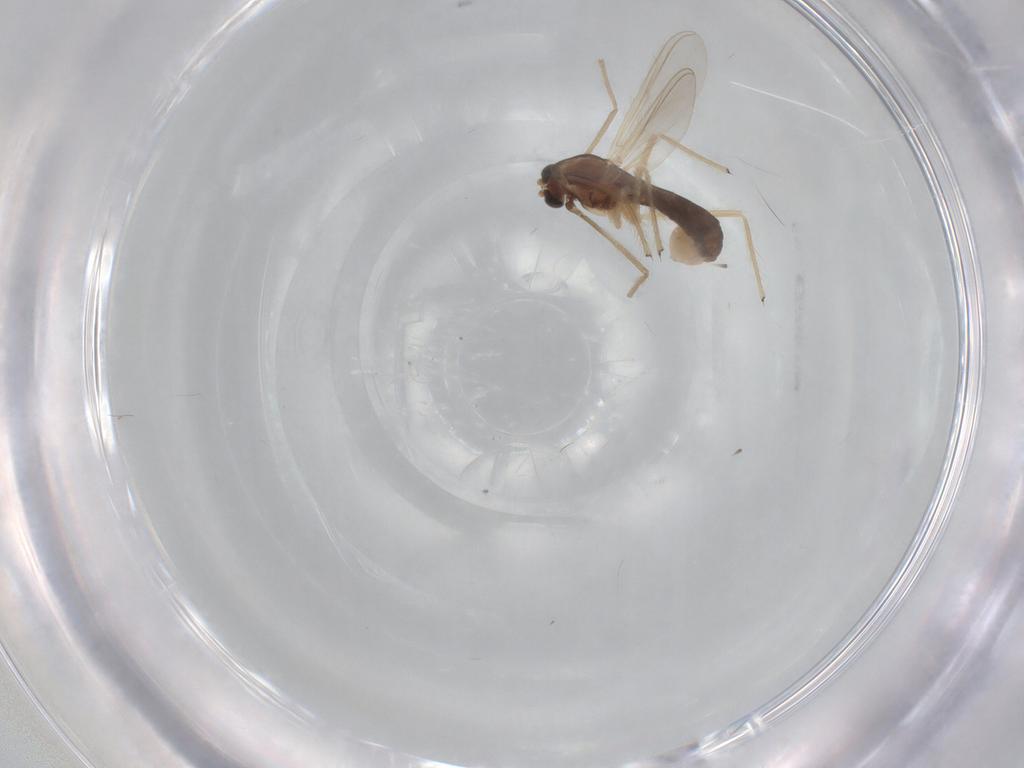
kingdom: Animalia
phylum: Arthropoda
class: Insecta
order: Diptera
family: Chironomidae
